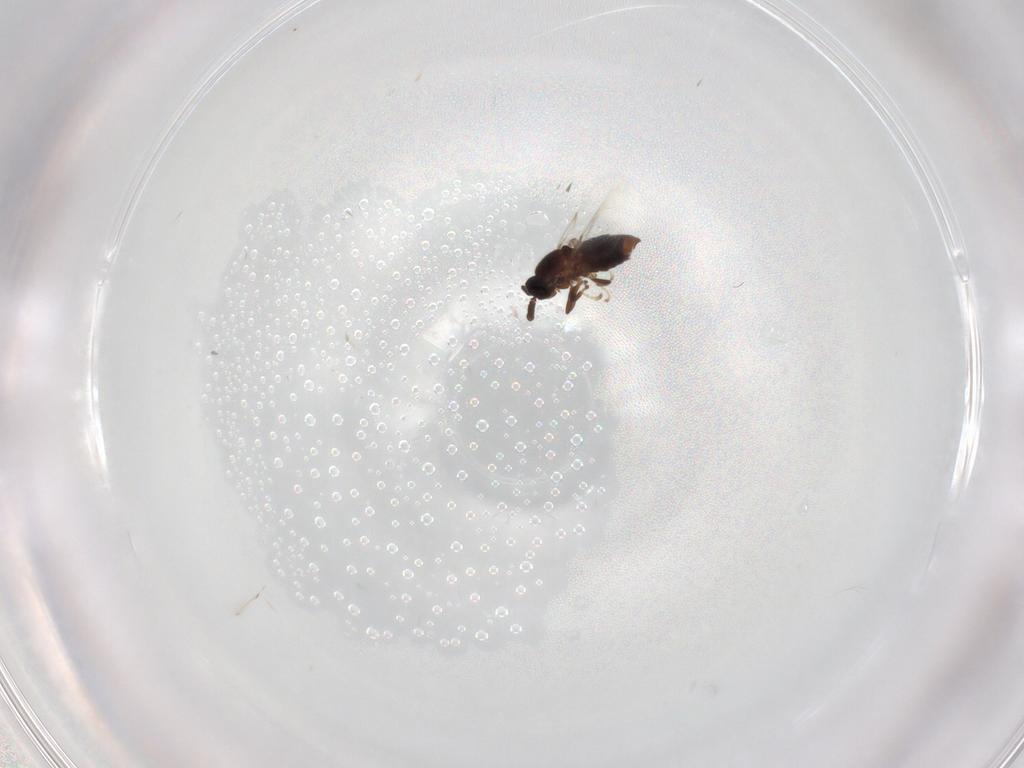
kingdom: Animalia
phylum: Arthropoda
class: Insecta
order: Diptera
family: Scatopsidae
